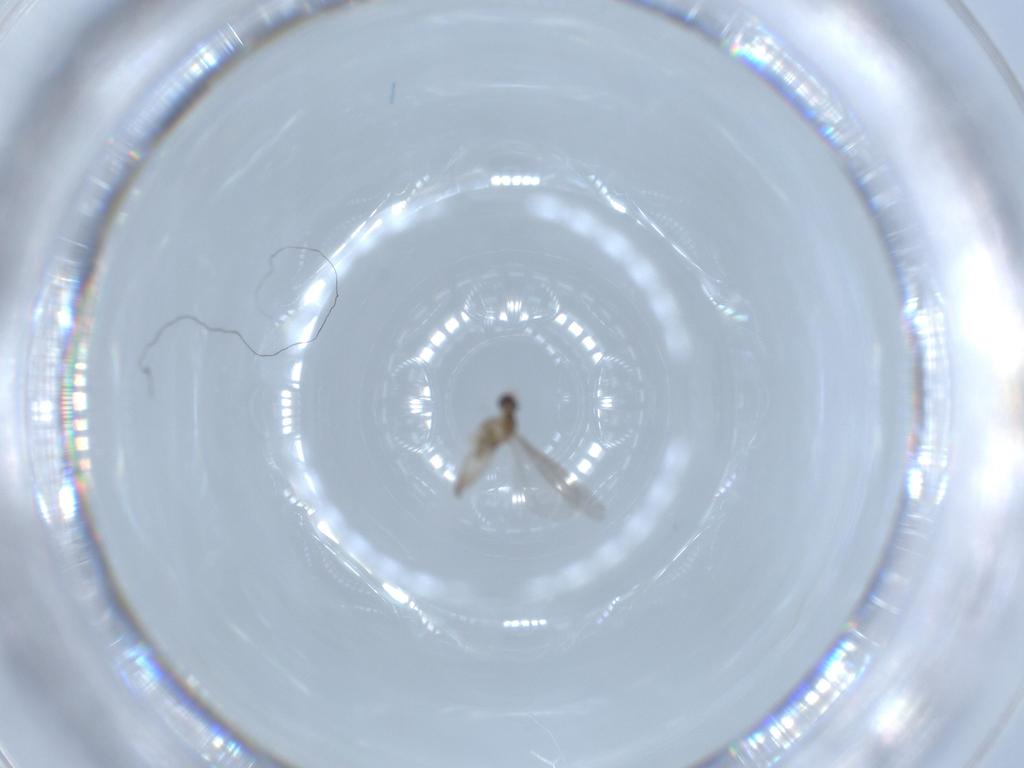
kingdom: Animalia
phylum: Arthropoda
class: Insecta
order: Diptera
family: Cecidomyiidae
